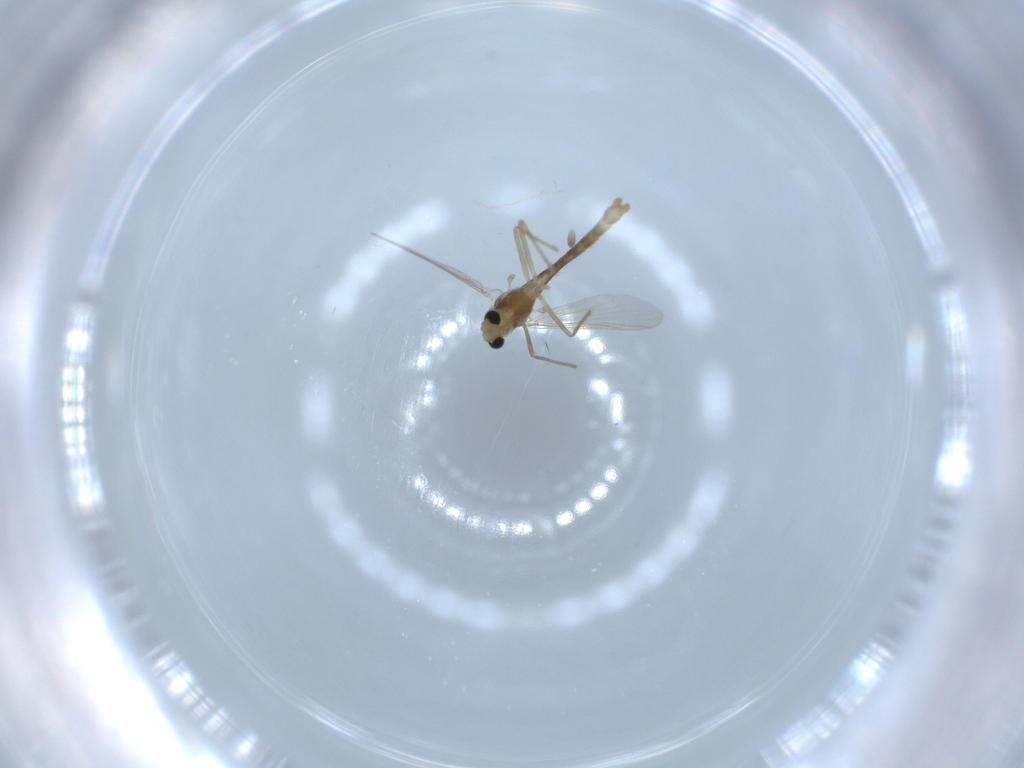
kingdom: Animalia
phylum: Arthropoda
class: Insecta
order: Diptera
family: Chironomidae
